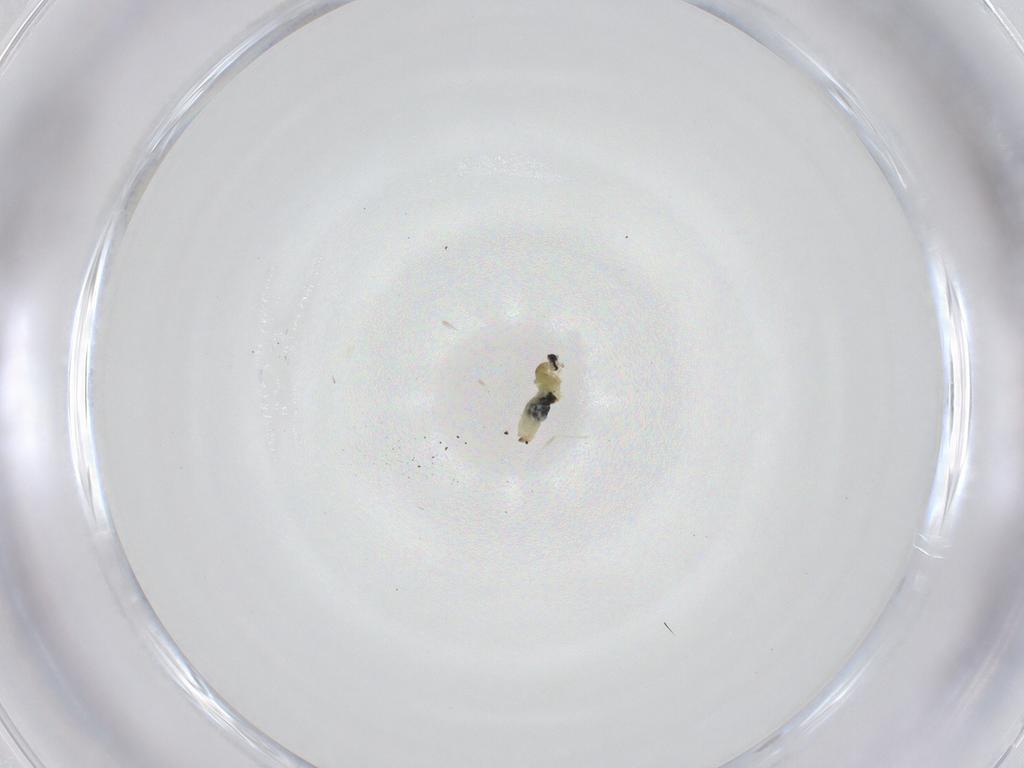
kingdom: Animalia
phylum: Arthropoda
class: Insecta
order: Diptera
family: Cecidomyiidae
